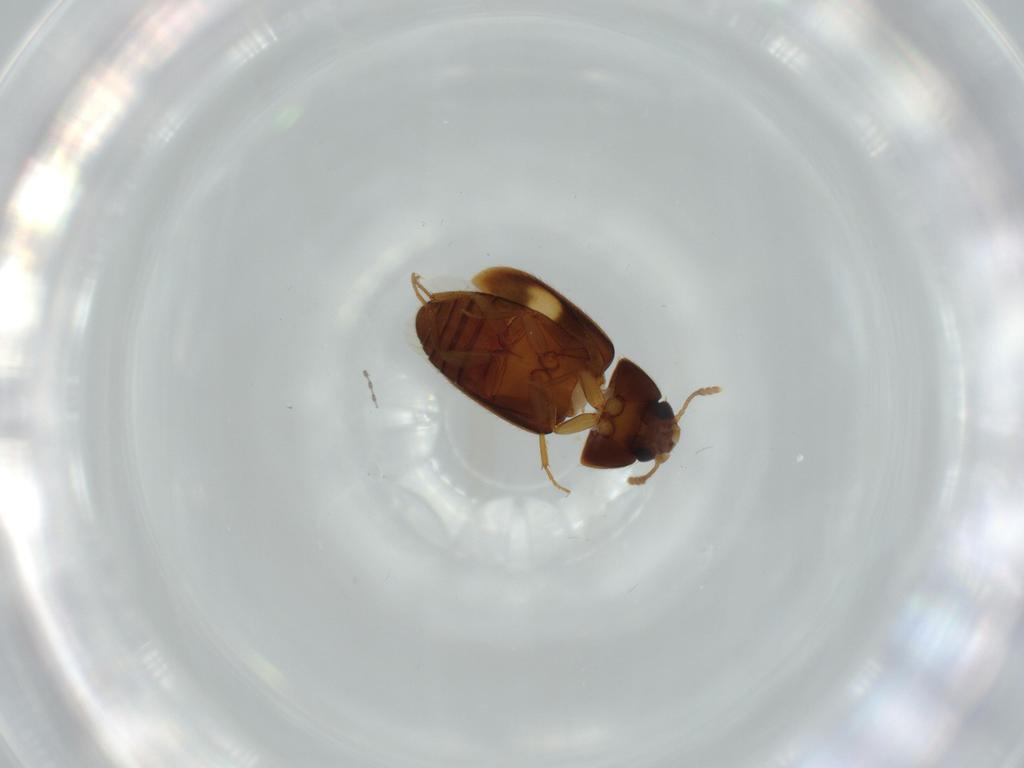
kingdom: Animalia
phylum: Arthropoda
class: Insecta
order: Coleoptera
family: Mycetophagidae
